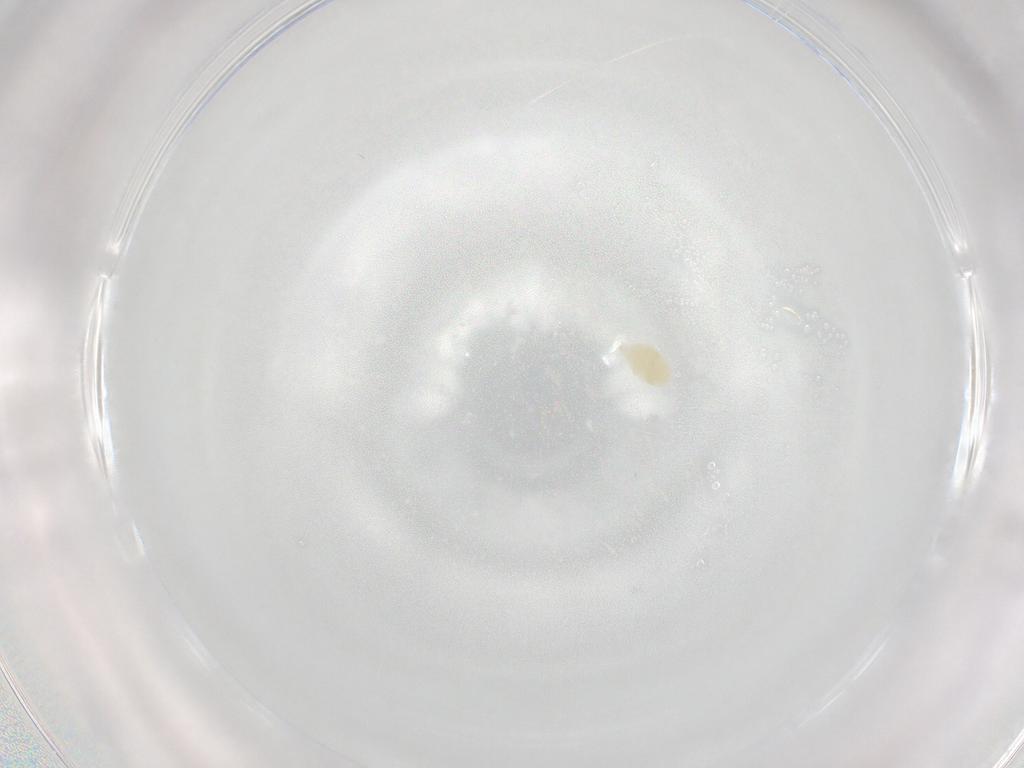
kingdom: Animalia
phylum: Arthropoda
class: Arachnida
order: Trombidiformes
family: Eupodidae
